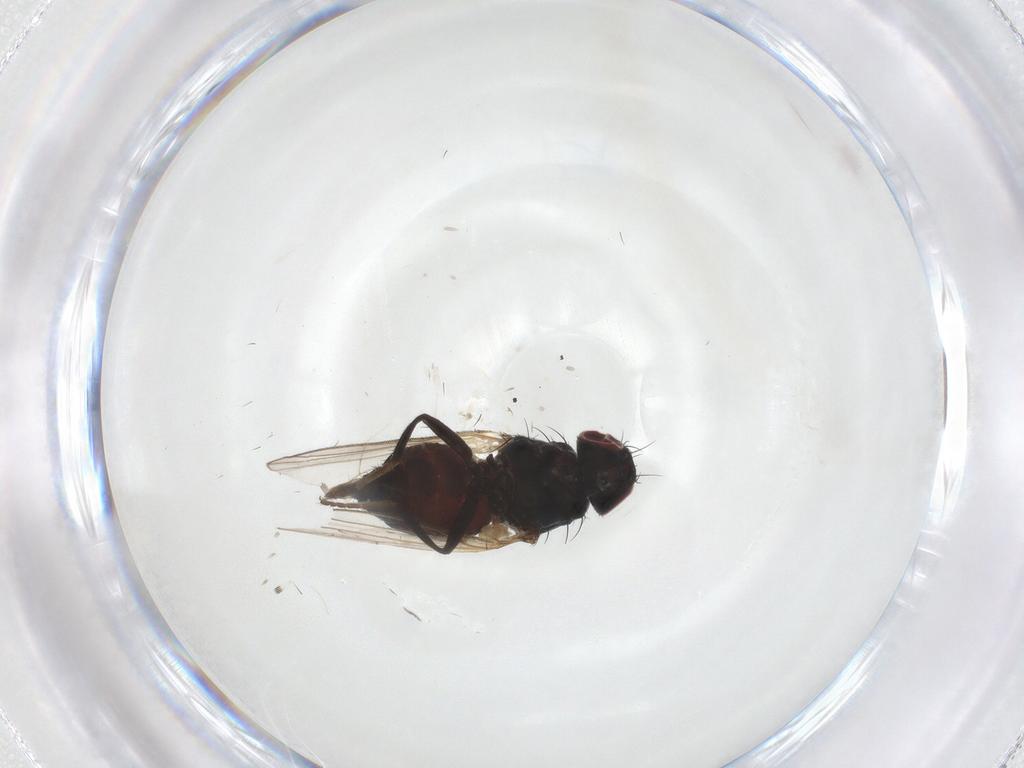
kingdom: Animalia
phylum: Arthropoda
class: Insecta
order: Diptera
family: Carnidae
